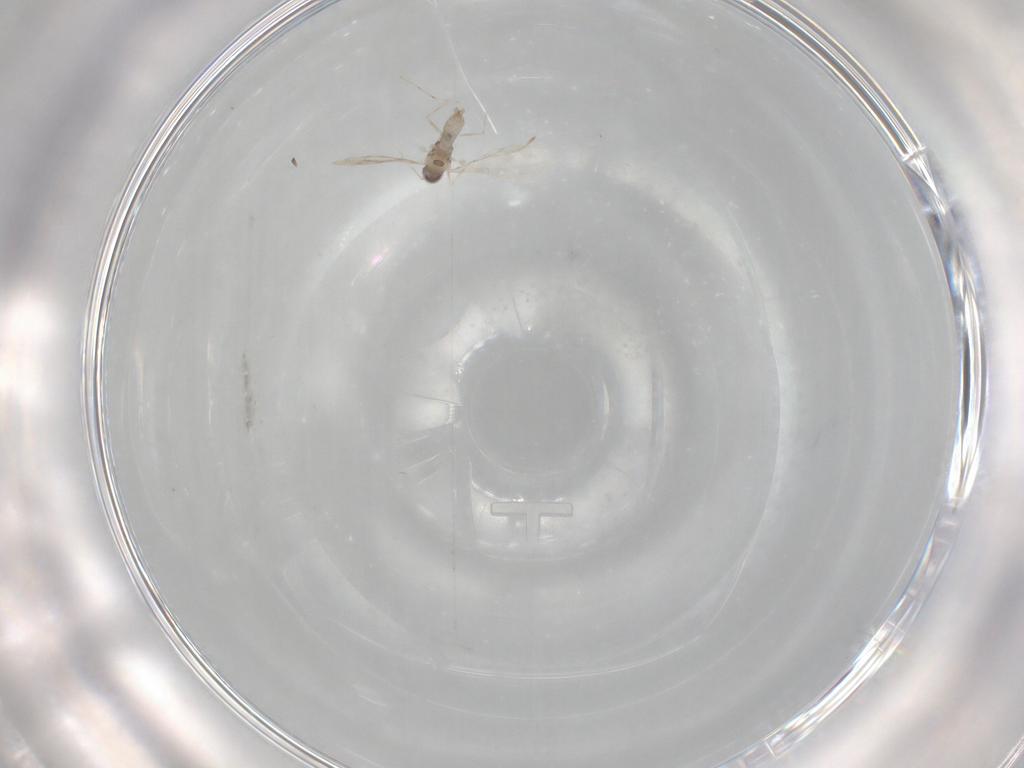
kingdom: Animalia
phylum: Arthropoda
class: Insecta
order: Diptera
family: Cecidomyiidae
